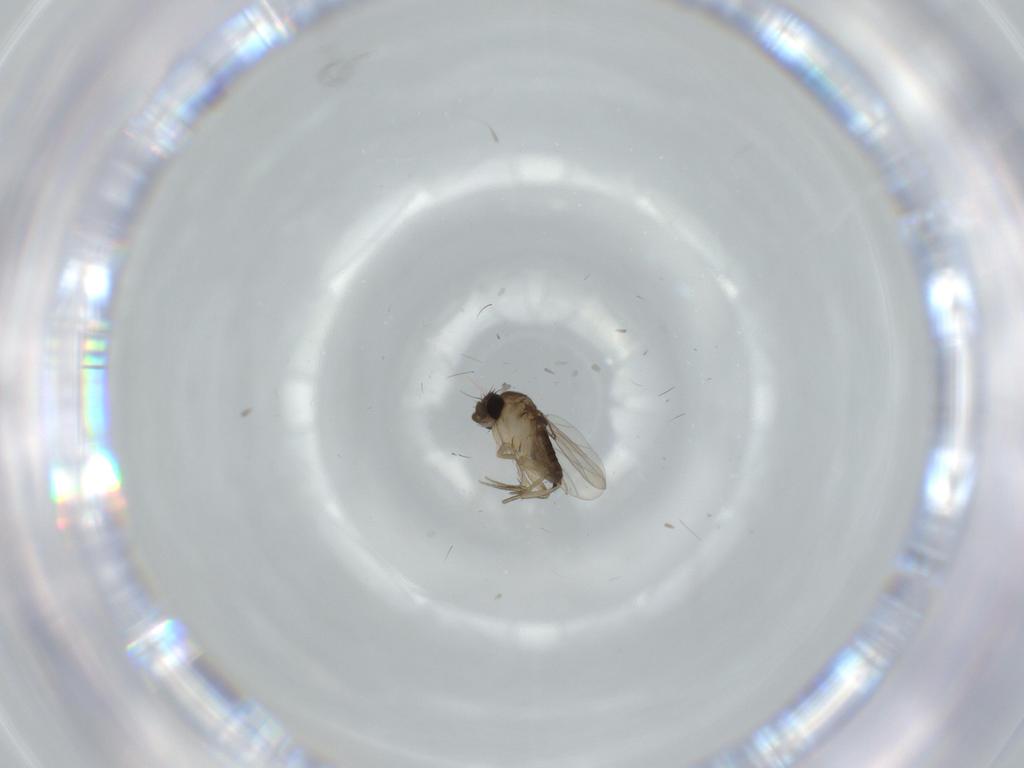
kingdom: Animalia
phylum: Arthropoda
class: Insecta
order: Diptera
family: Phoridae
